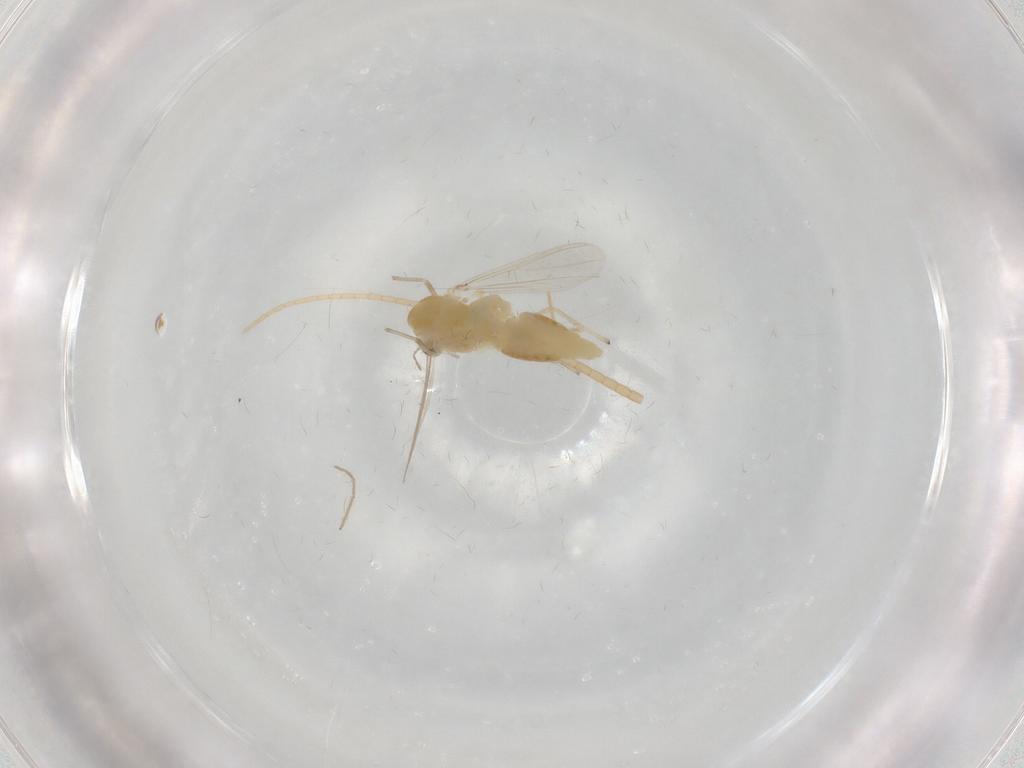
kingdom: Animalia
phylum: Arthropoda
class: Insecta
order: Diptera
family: Chironomidae
